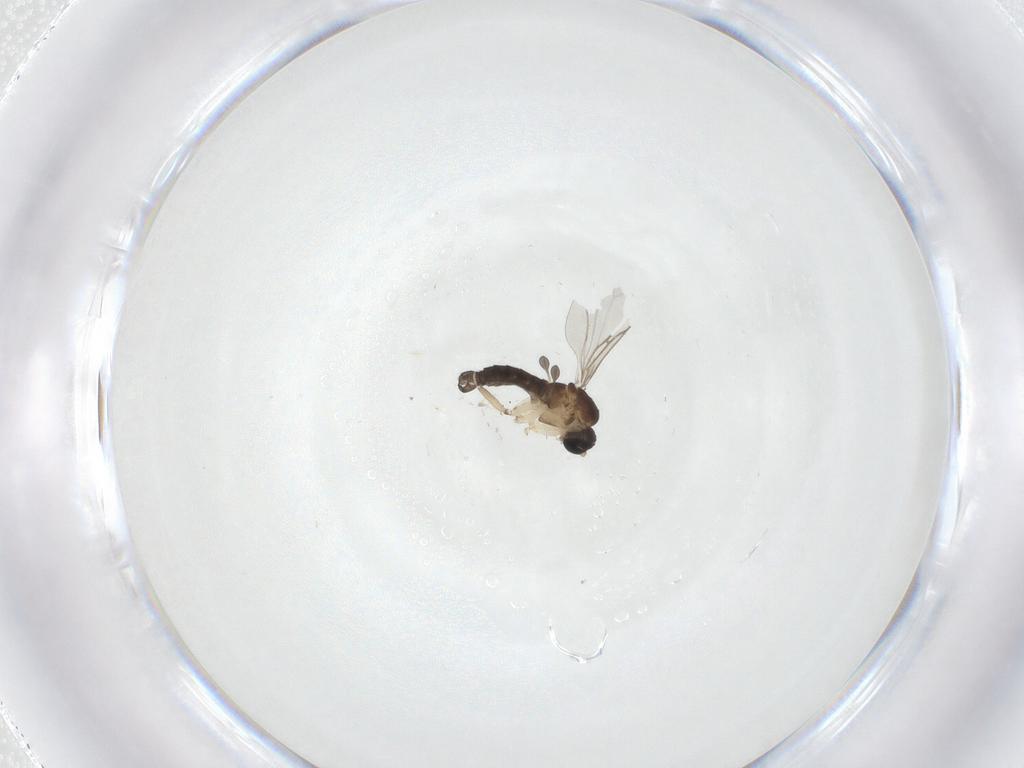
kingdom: Animalia
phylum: Arthropoda
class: Insecta
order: Diptera
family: Sciaridae
